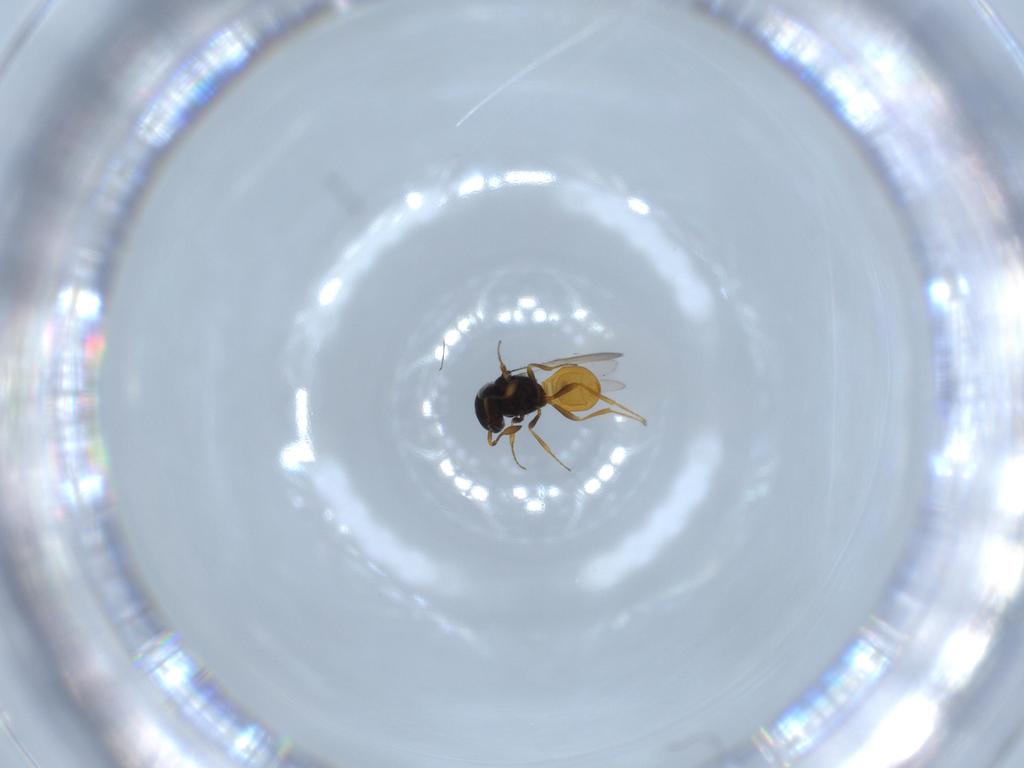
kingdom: Animalia
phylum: Arthropoda
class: Insecta
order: Hymenoptera
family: Scelionidae
